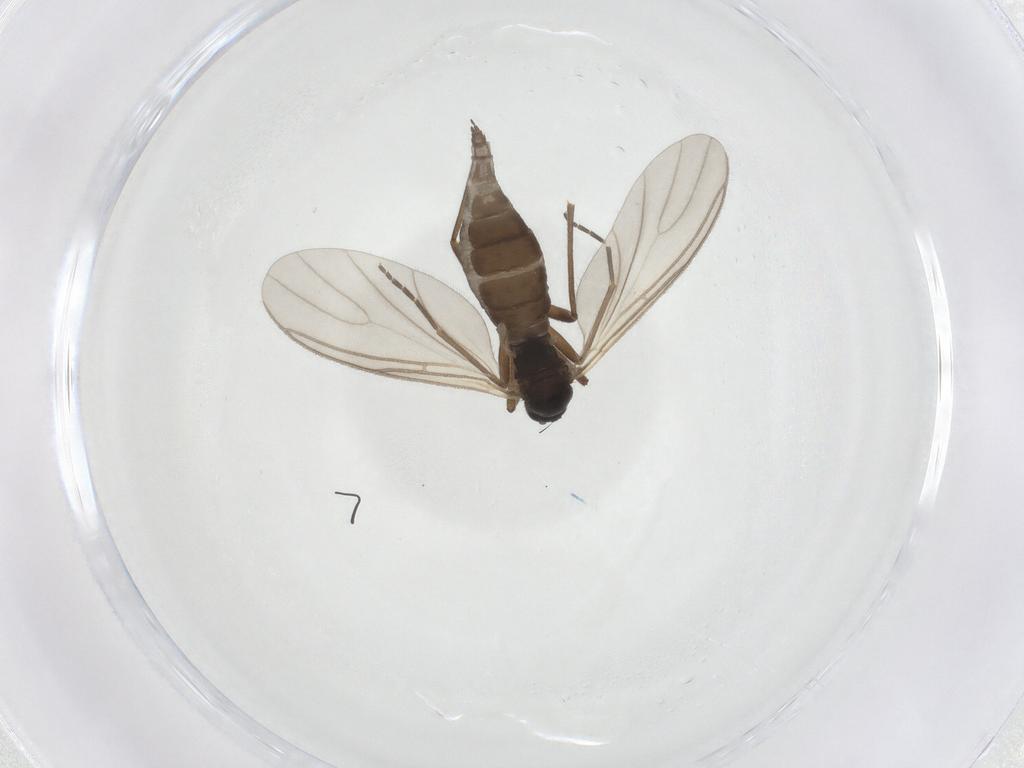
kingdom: Animalia
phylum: Arthropoda
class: Insecta
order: Diptera
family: Sciaridae
